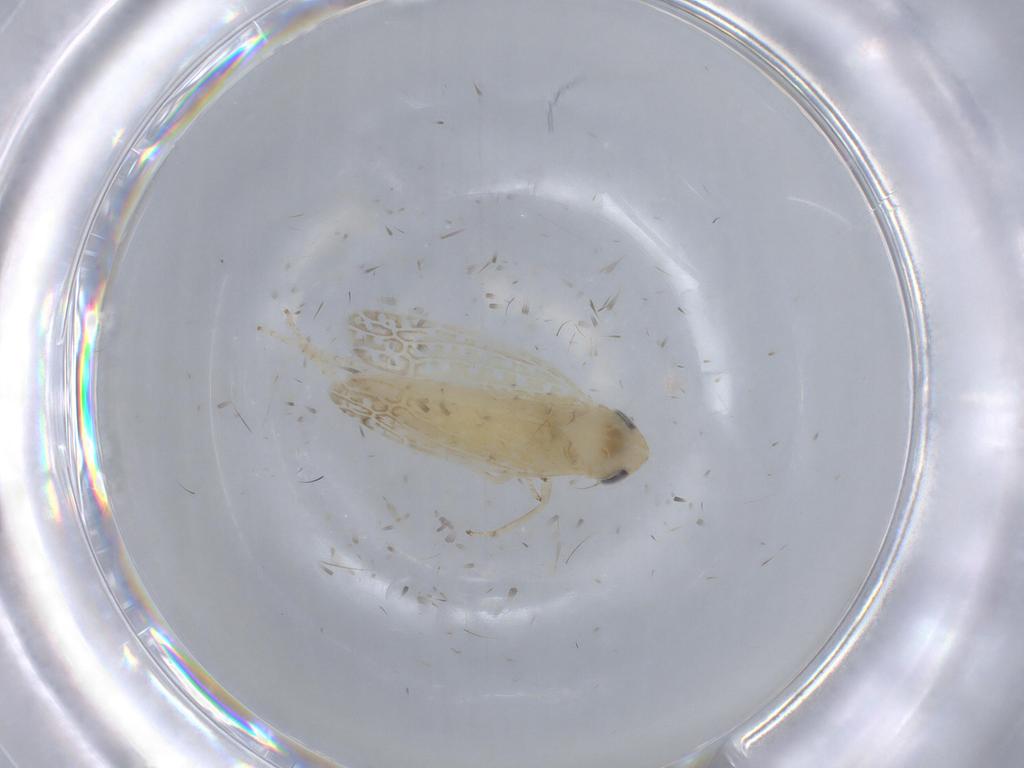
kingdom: Animalia
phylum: Arthropoda
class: Insecta
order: Hemiptera
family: Cicadellidae
